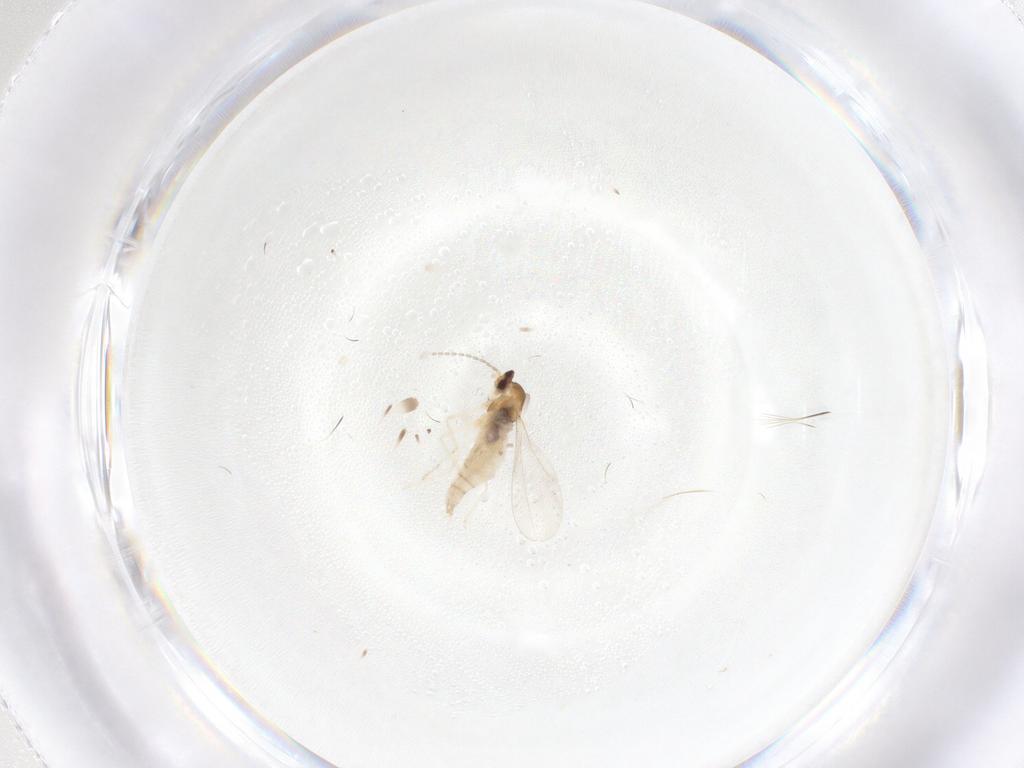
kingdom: Animalia
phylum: Arthropoda
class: Insecta
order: Diptera
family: Cecidomyiidae
